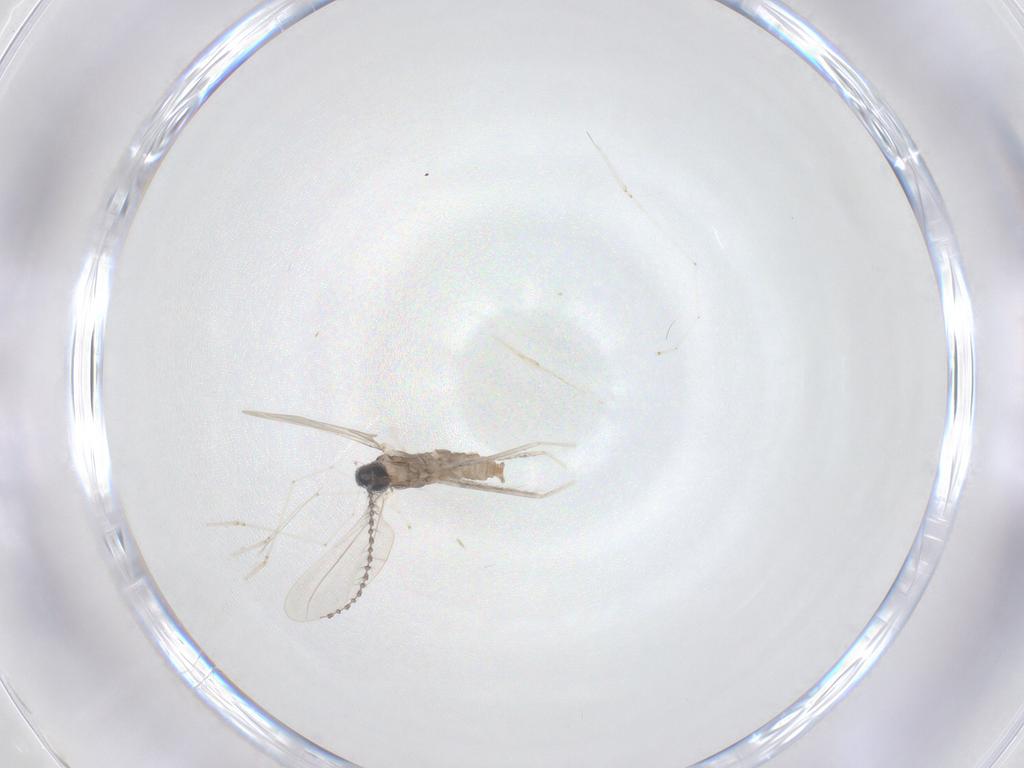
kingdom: Animalia
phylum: Arthropoda
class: Insecta
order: Diptera
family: Cecidomyiidae
